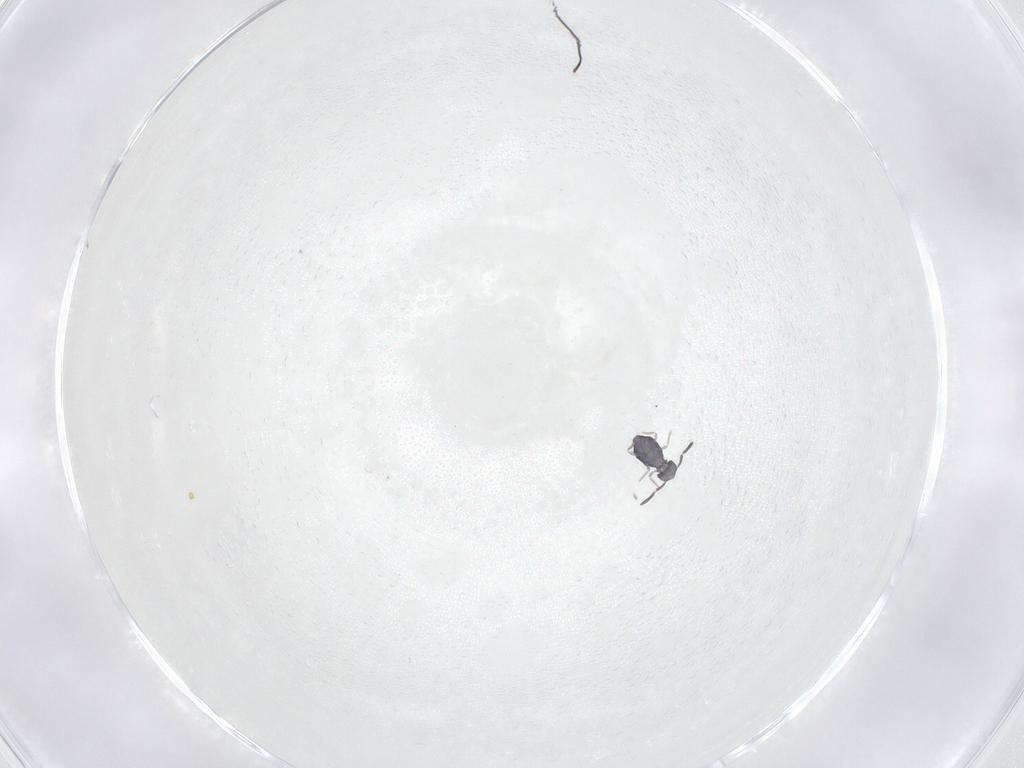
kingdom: Animalia
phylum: Arthropoda
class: Collembola
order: Symphypleona
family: Katiannidae
